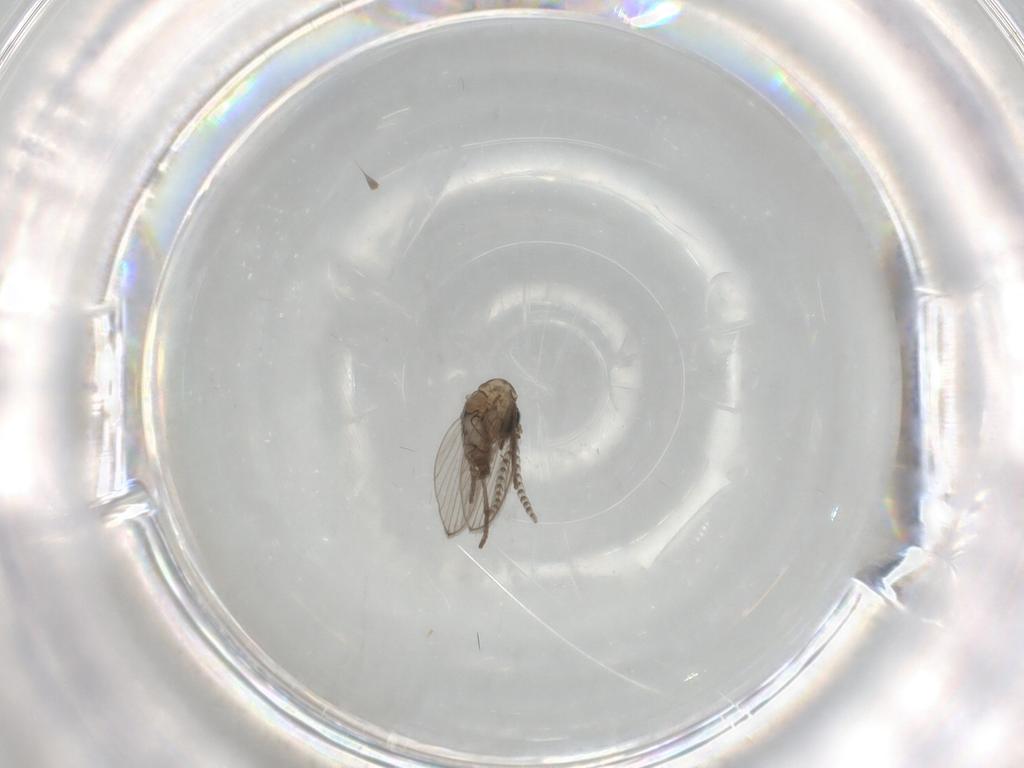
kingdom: Animalia
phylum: Arthropoda
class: Insecta
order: Diptera
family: Psychodidae
